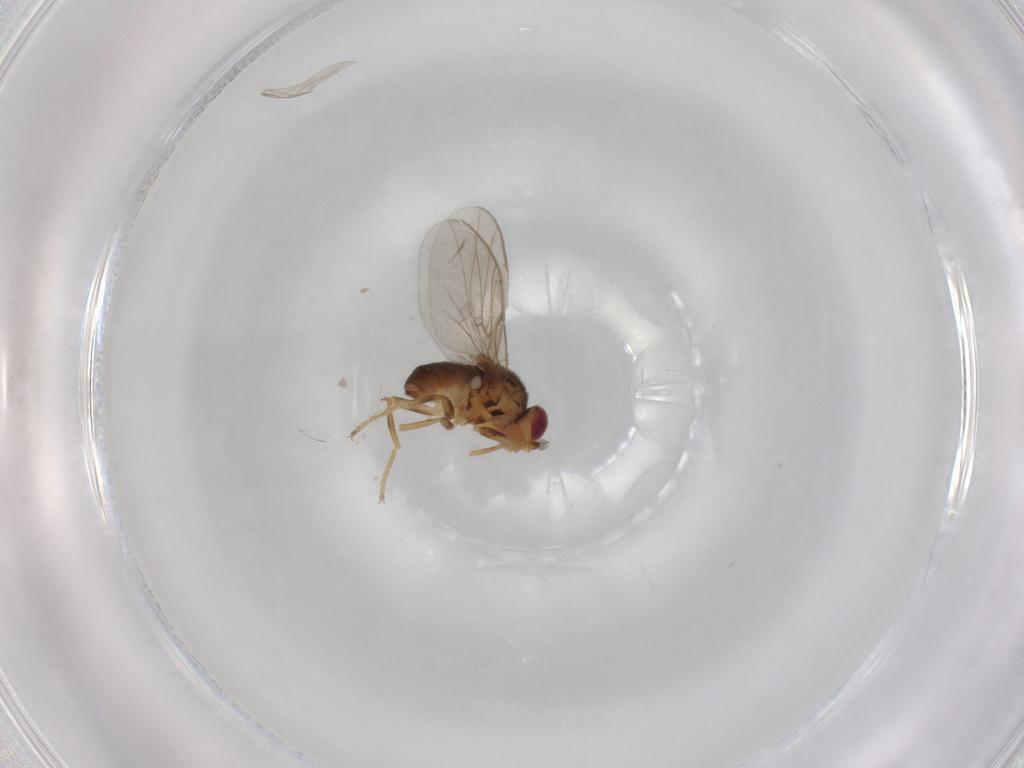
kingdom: Animalia
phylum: Arthropoda
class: Insecta
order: Diptera
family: Chloropidae
